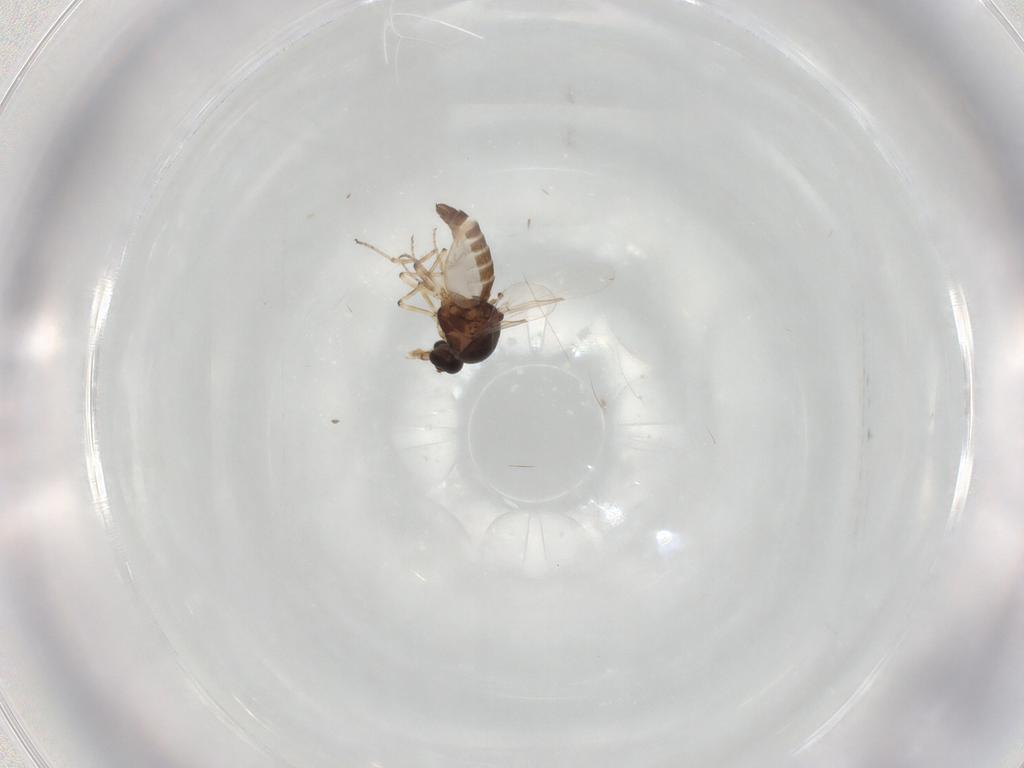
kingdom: Animalia
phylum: Arthropoda
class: Insecta
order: Diptera
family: Ceratopogonidae
